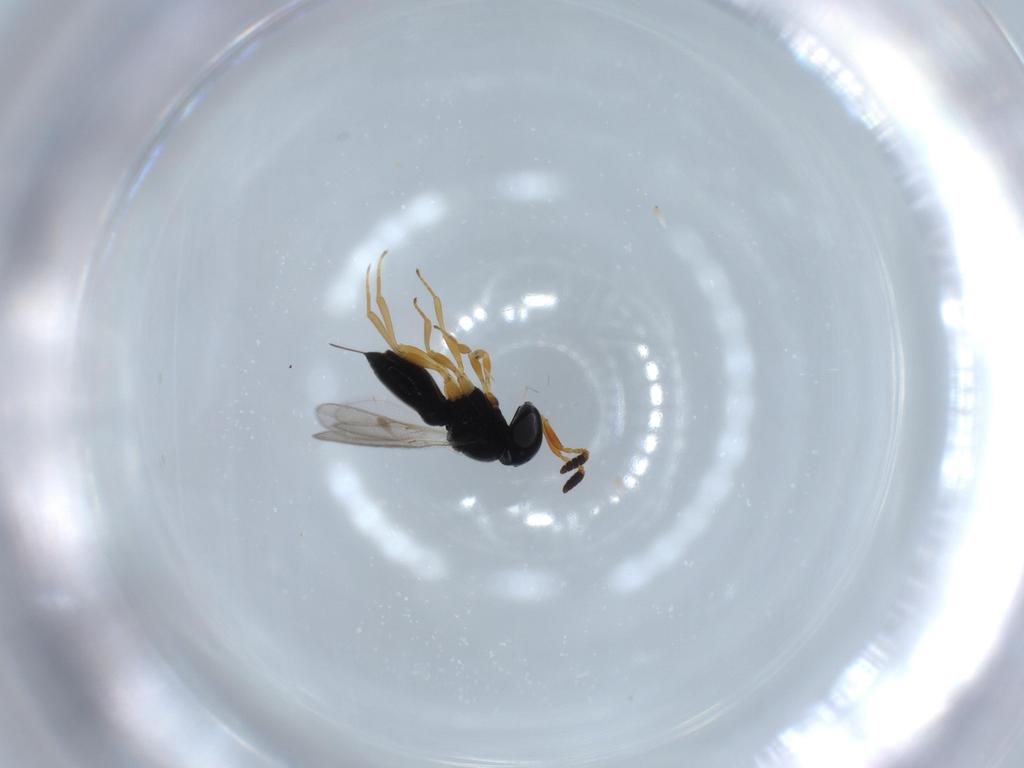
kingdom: Animalia
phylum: Arthropoda
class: Insecta
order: Hymenoptera
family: Scelionidae
